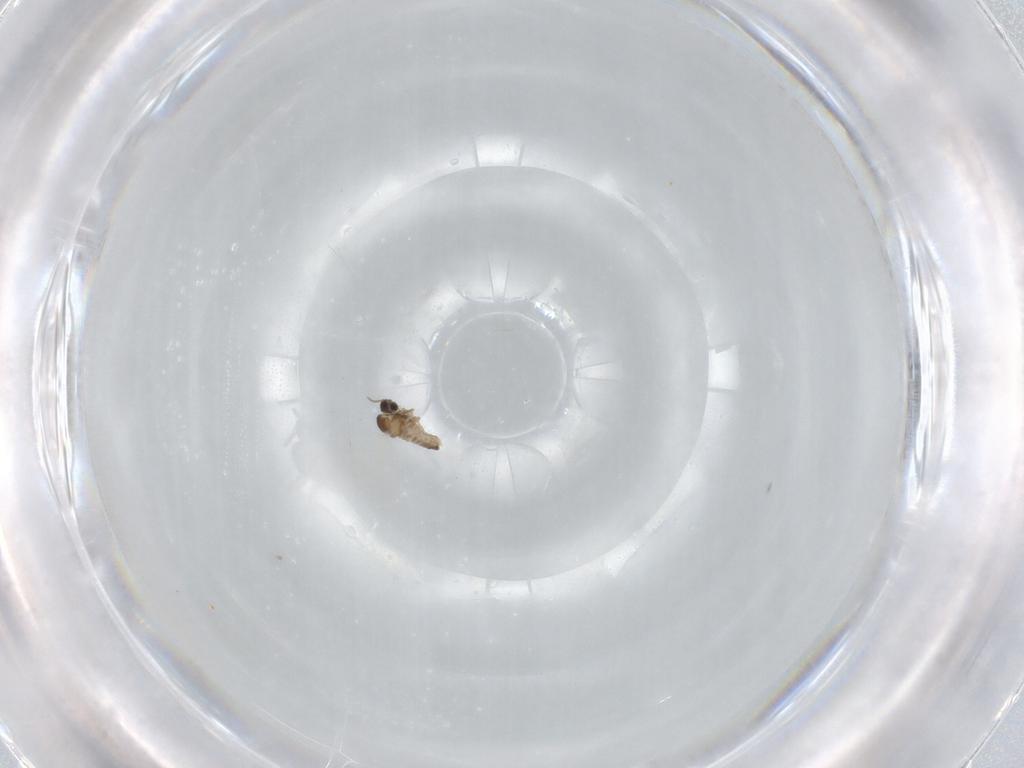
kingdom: Animalia
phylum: Arthropoda
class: Insecta
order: Diptera
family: Cecidomyiidae
